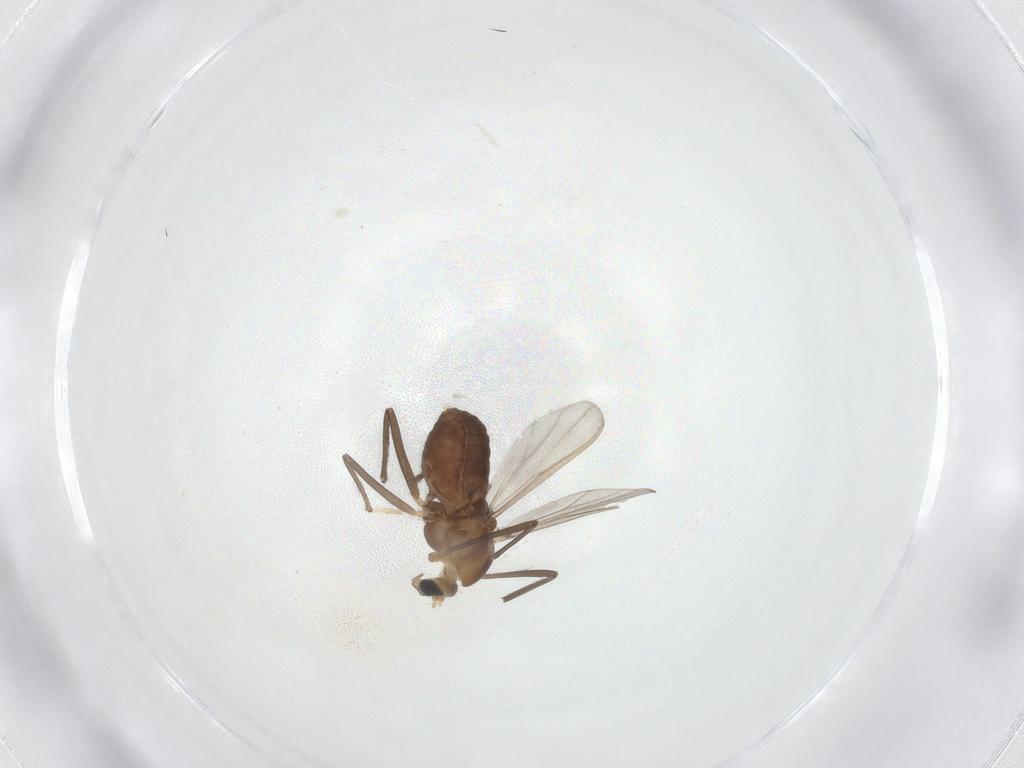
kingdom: Animalia
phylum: Arthropoda
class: Insecta
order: Diptera
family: Chironomidae
